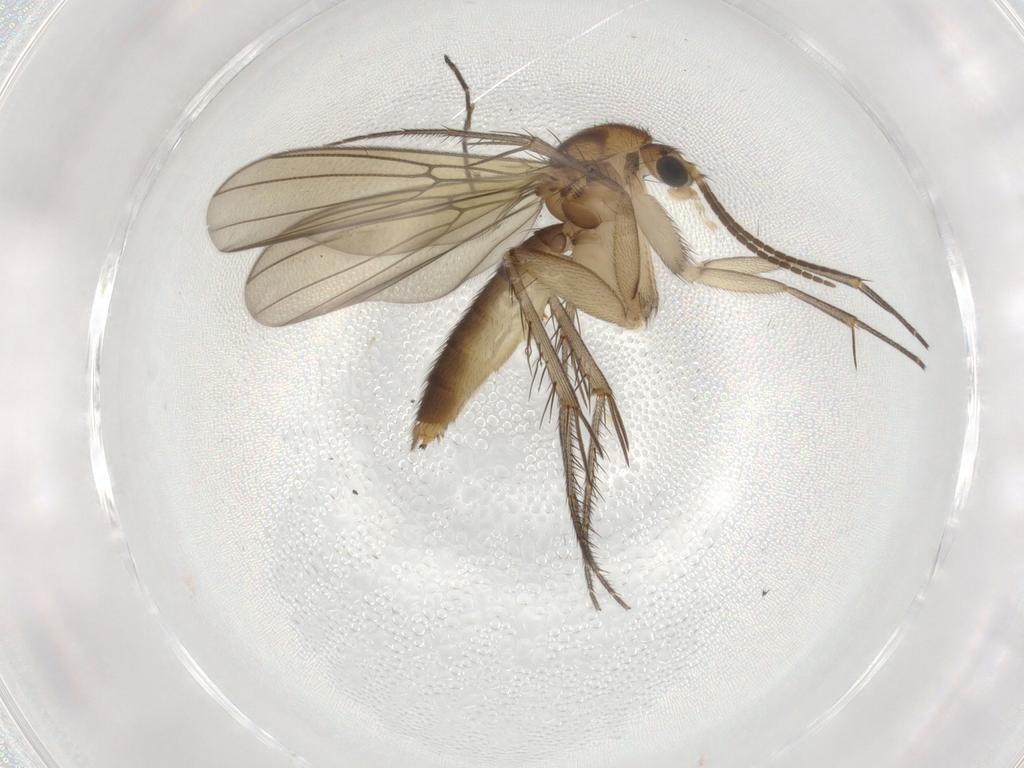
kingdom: Animalia
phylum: Arthropoda
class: Insecta
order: Diptera
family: Mycetophilidae
